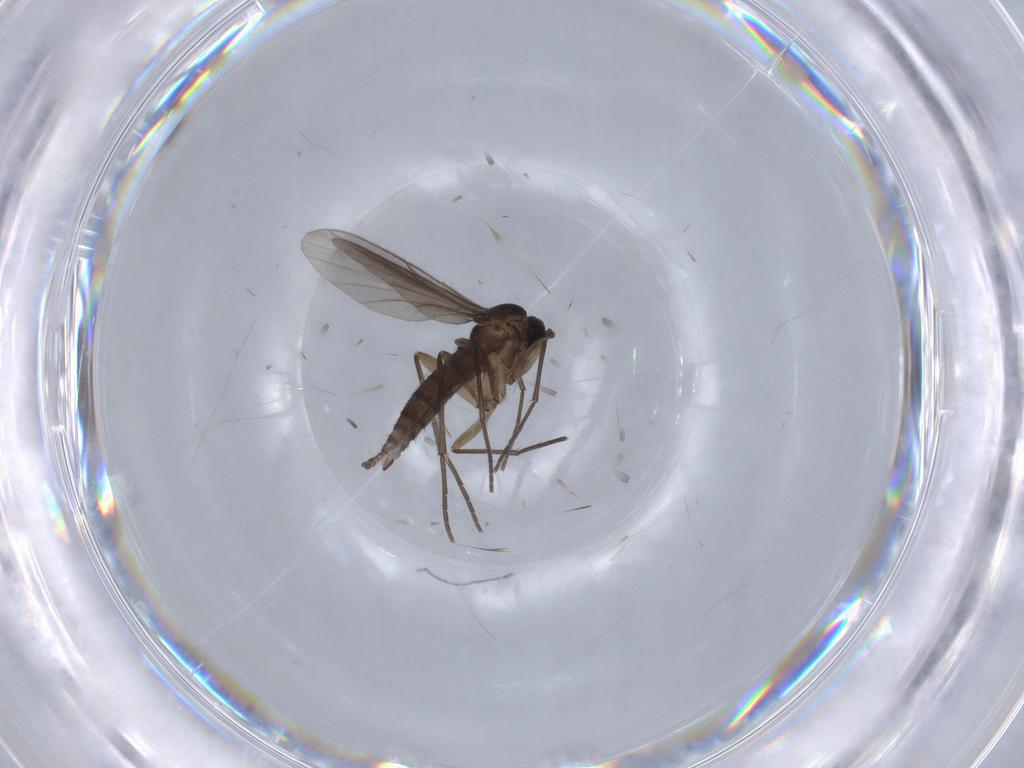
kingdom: Animalia
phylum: Arthropoda
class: Insecta
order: Diptera
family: Sciaridae
